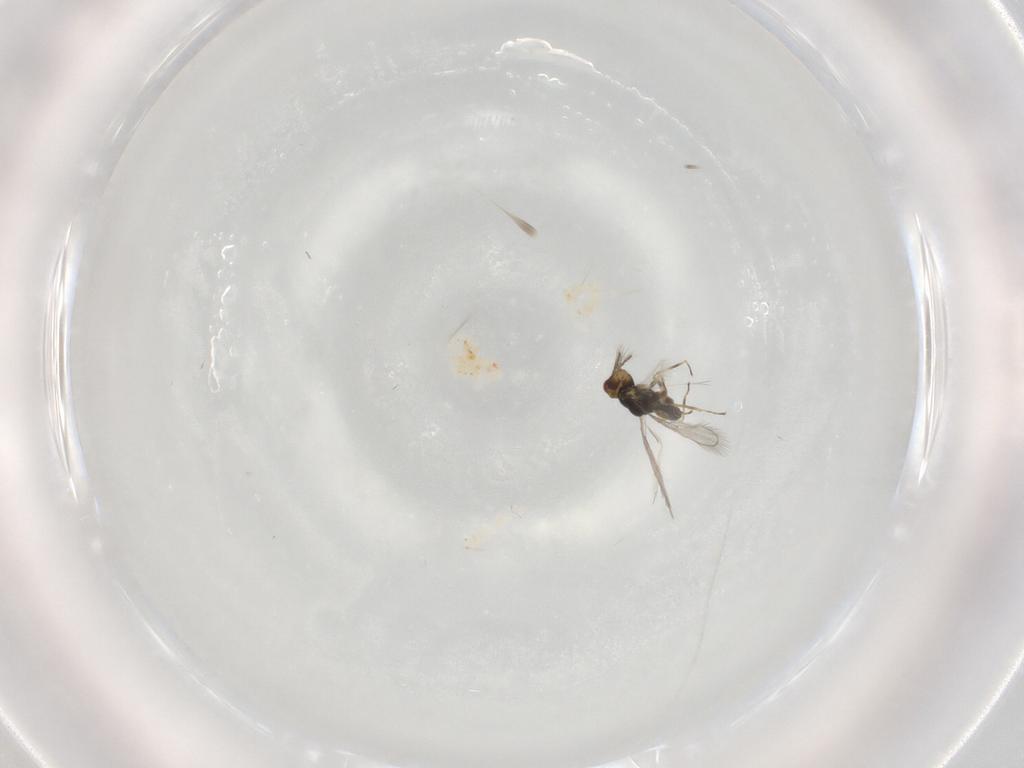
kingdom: Animalia
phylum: Arthropoda
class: Insecta
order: Hymenoptera
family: Eulophidae
